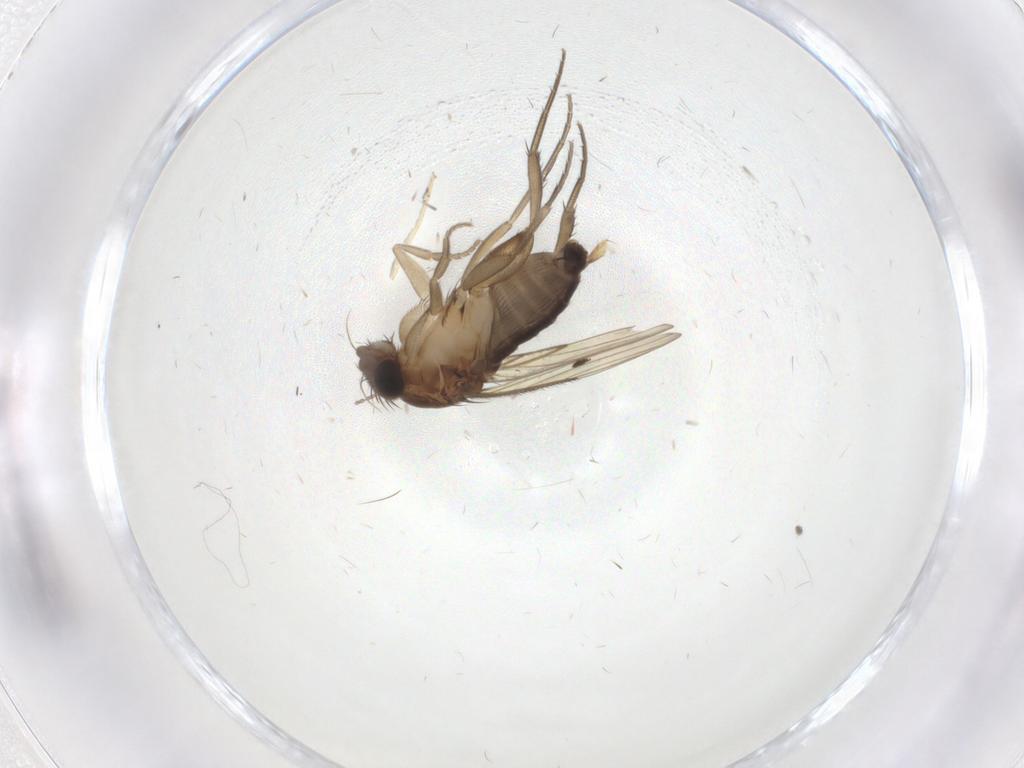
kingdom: Animalia
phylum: Arthropoda
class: Insecta
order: Diptera
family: Phoridae
